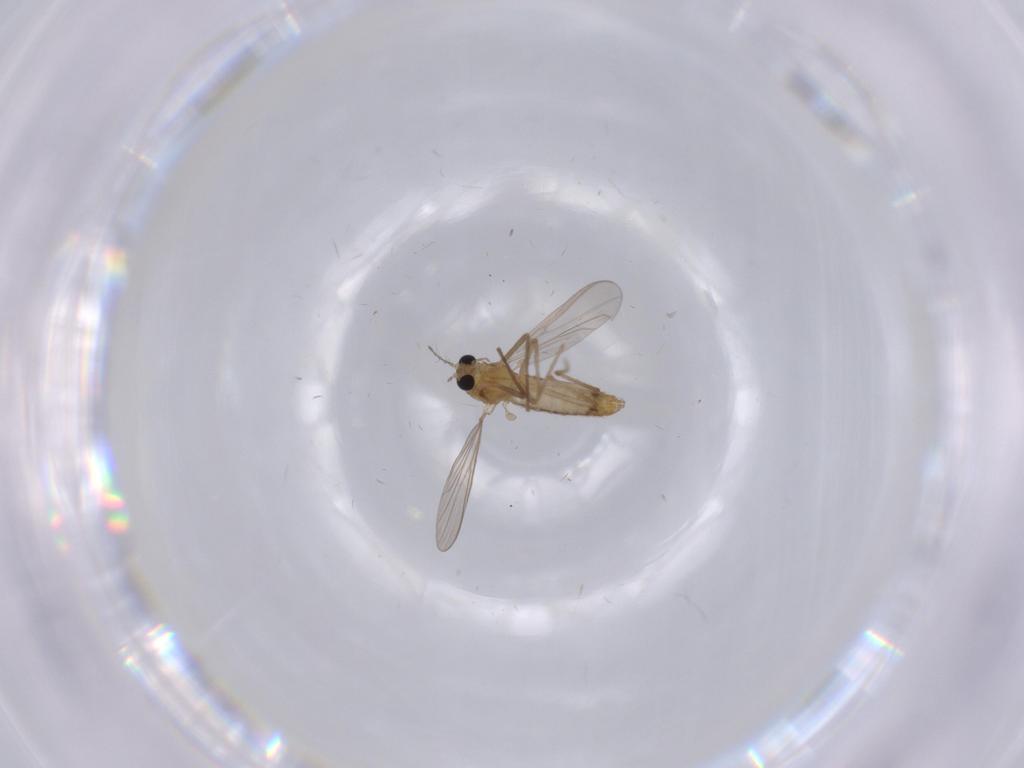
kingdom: Animalia
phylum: Arthropoda
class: Insecta
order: Diptera
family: Chironomidae
